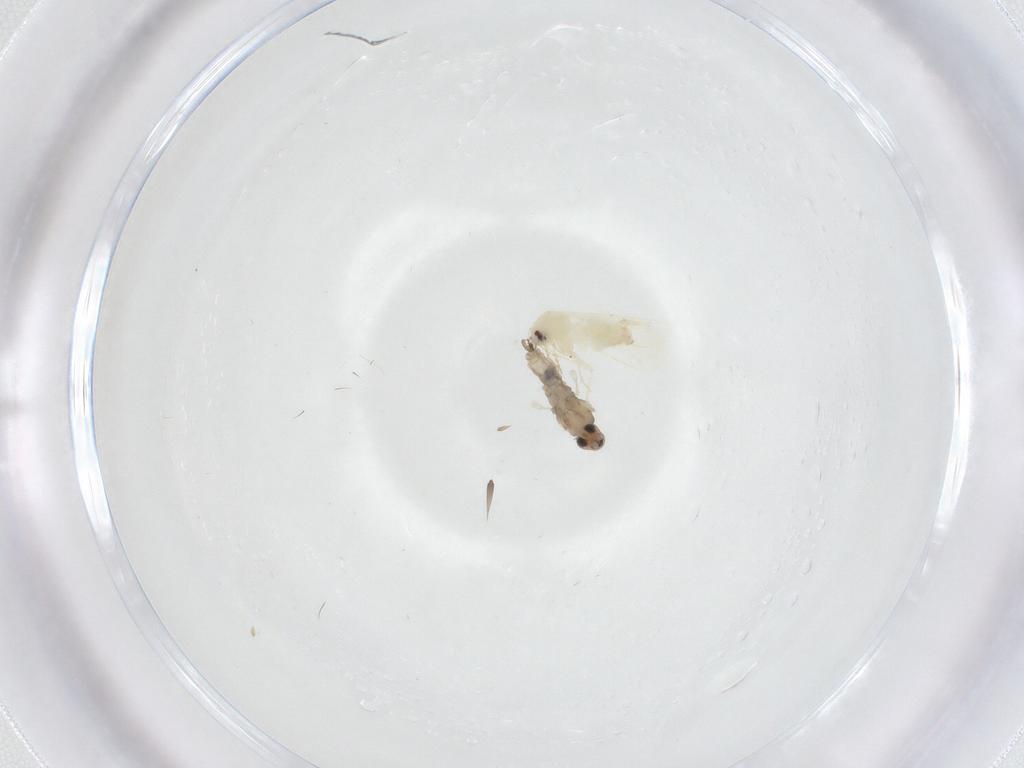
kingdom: Animalia
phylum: Arthropoda
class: Insecta
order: Diptera
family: Cecidomyiidae
